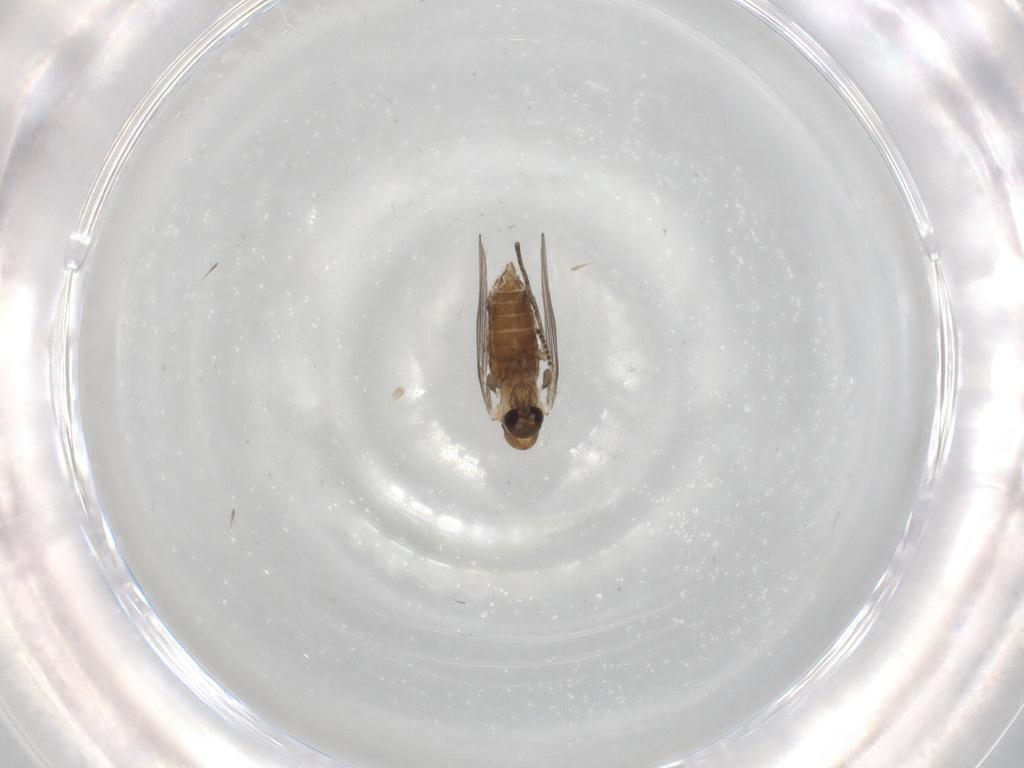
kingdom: Animalia
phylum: Arthropoda
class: Insecta
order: Diptera
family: Psychodidae
